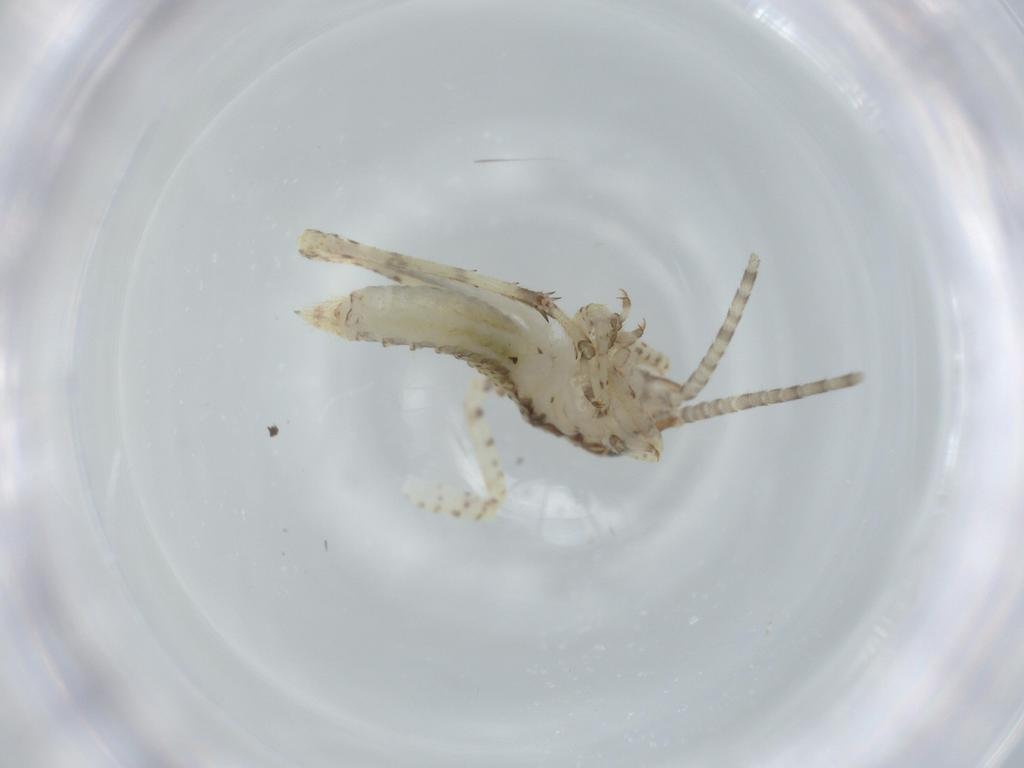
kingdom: Animalia
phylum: Arthropoda
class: Insecta
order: Orthoptera
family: Gryllidae
